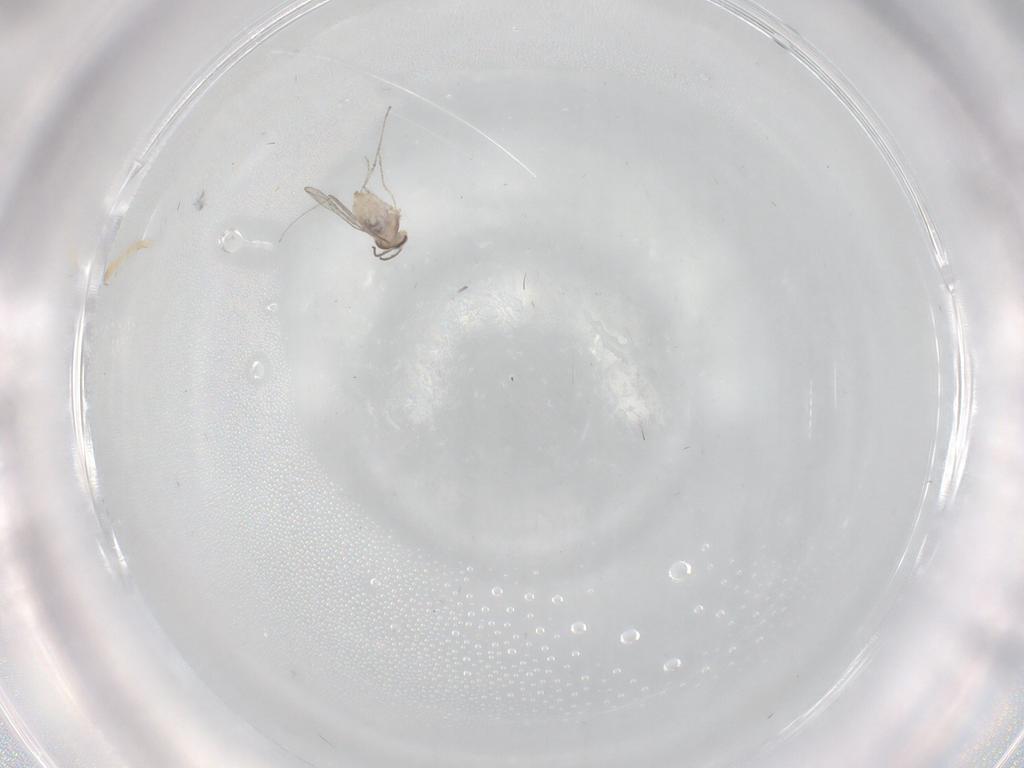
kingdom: Animalia
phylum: Arthropoda
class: Insecta
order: Diptera
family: Cecidomyiidae
